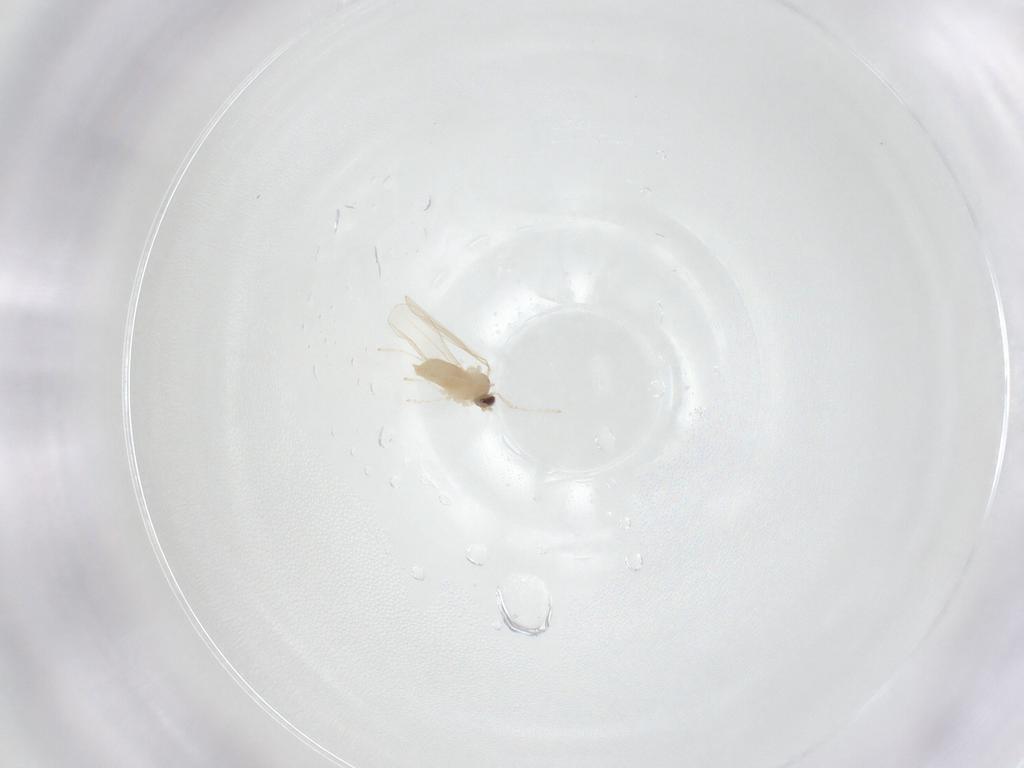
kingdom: Animalia
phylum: Arthropoda
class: Insecta
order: Diptera
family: Cecidomyiidae
